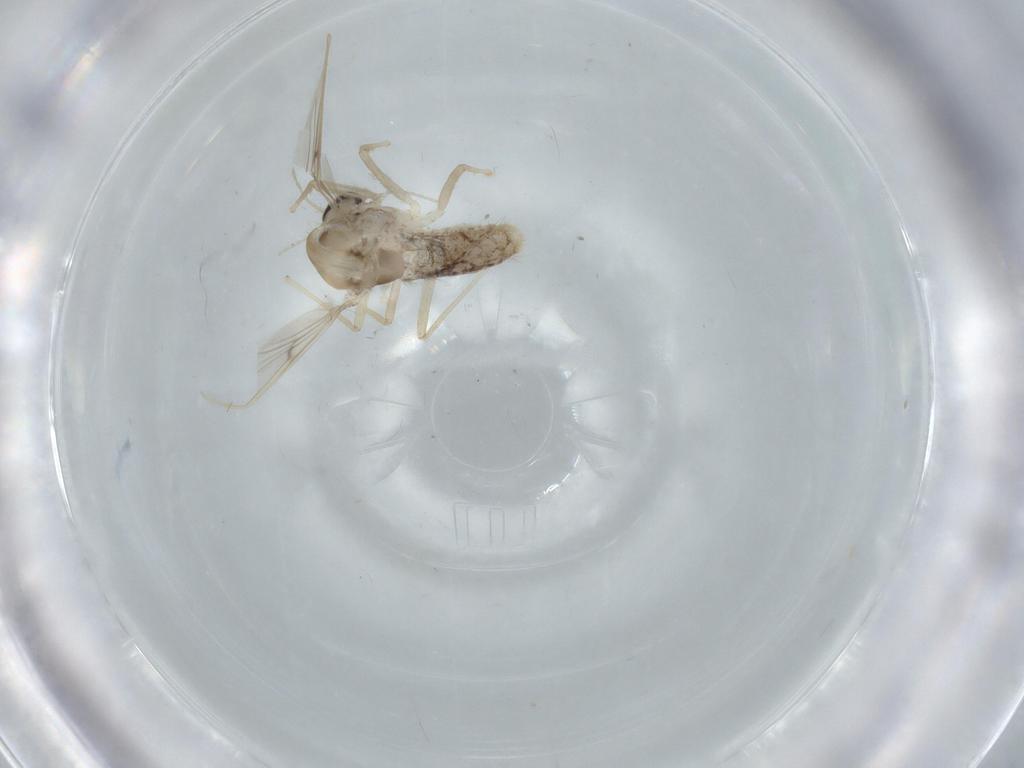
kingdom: Animalia
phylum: Arthropoda
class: Insecta
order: Diptera
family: Chironomidae
